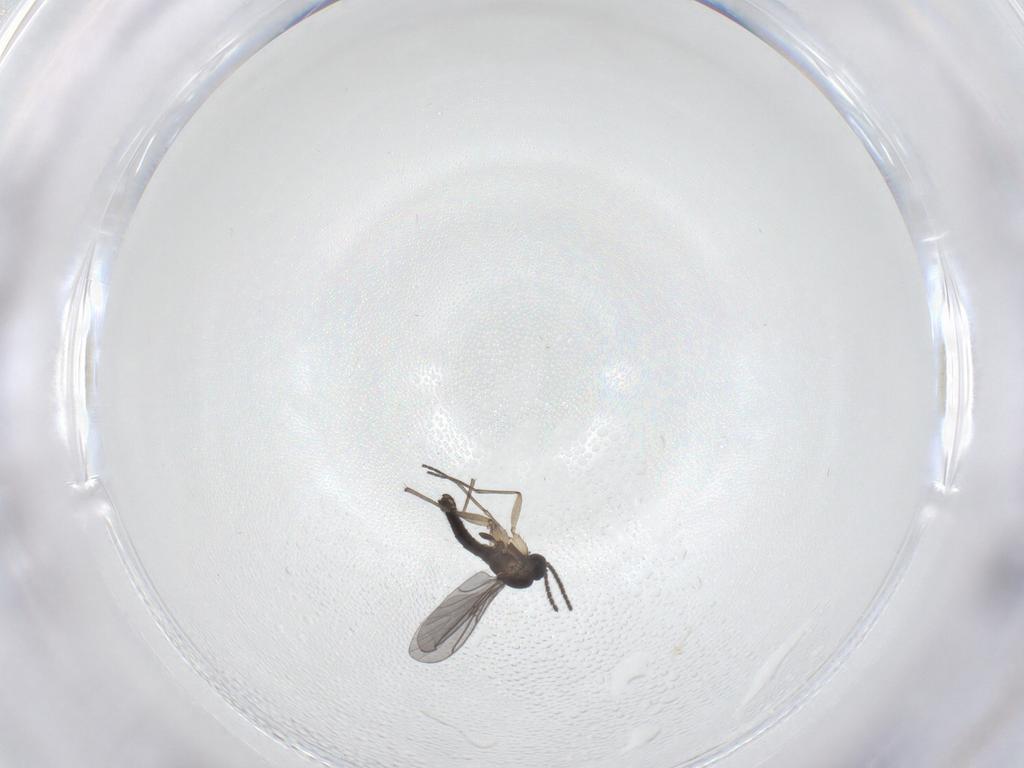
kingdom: Animalia
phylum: Arthropoda
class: Insecta
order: Diptera
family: Sciaridae
